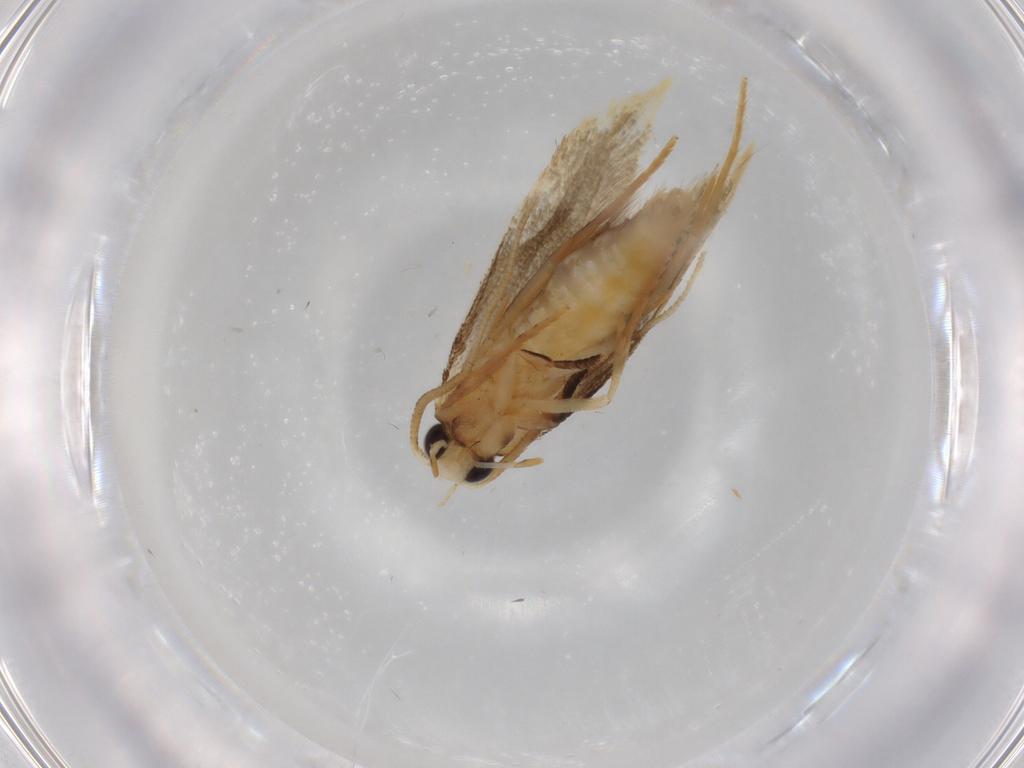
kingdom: Animalia
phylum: Arthropoda
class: Insecta
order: Lepidoptera
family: Tineidae
